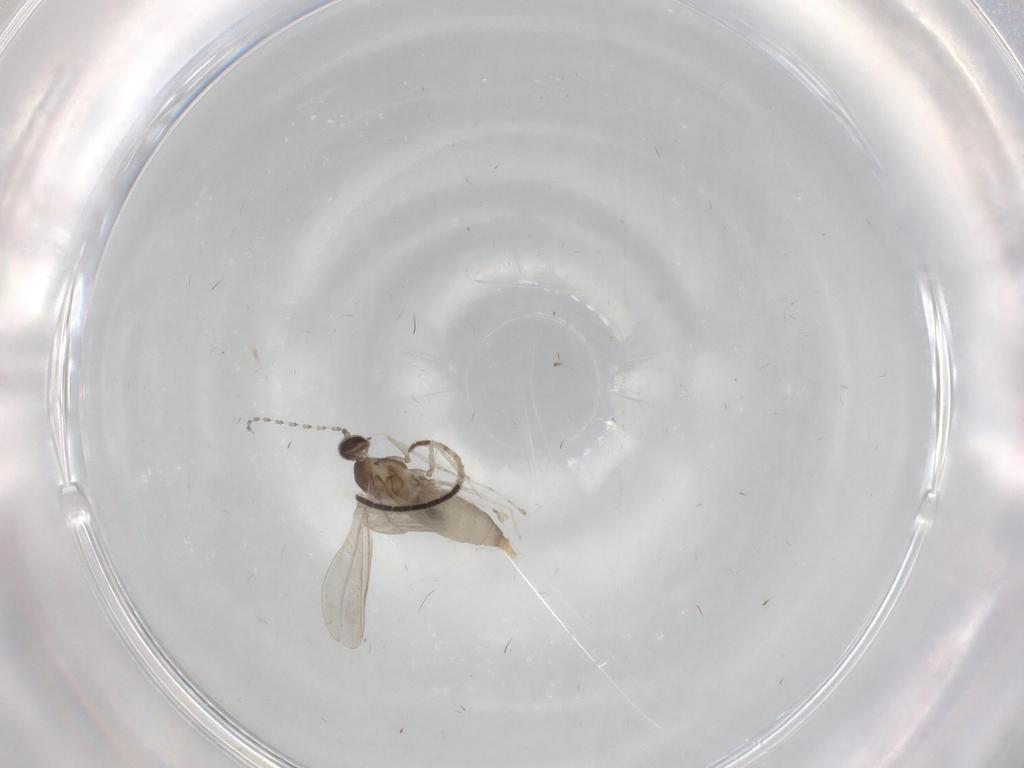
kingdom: Animalia
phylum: Arthropoda
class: Insecta
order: Diptera
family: Cecidomyiidae
